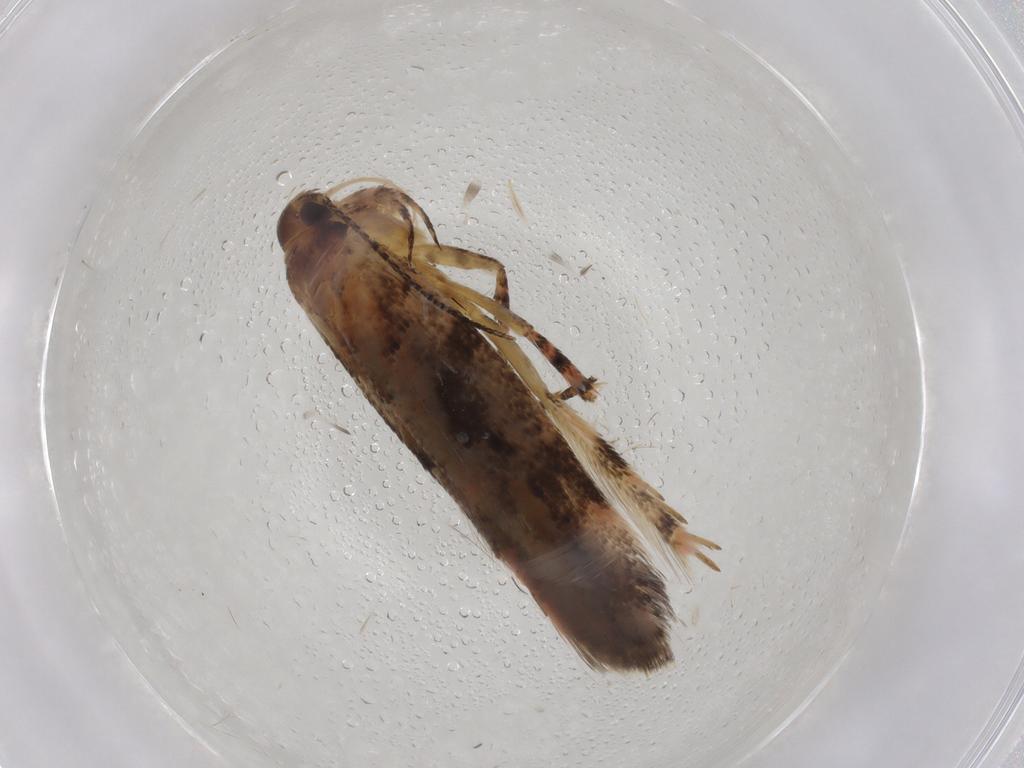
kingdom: Animalia
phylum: Arthropoda
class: Insecta
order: Lepidoptera
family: Gelechiidae
